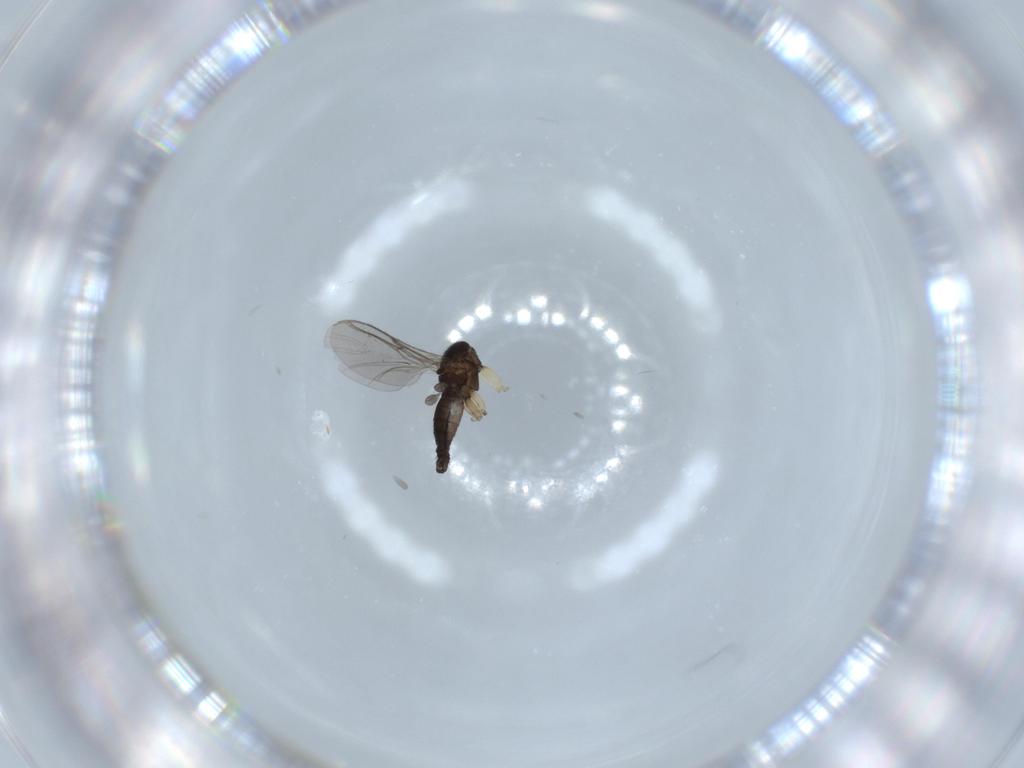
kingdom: Animalia
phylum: Arthropoda
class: Insecta
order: Diptera
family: Sciaridae
